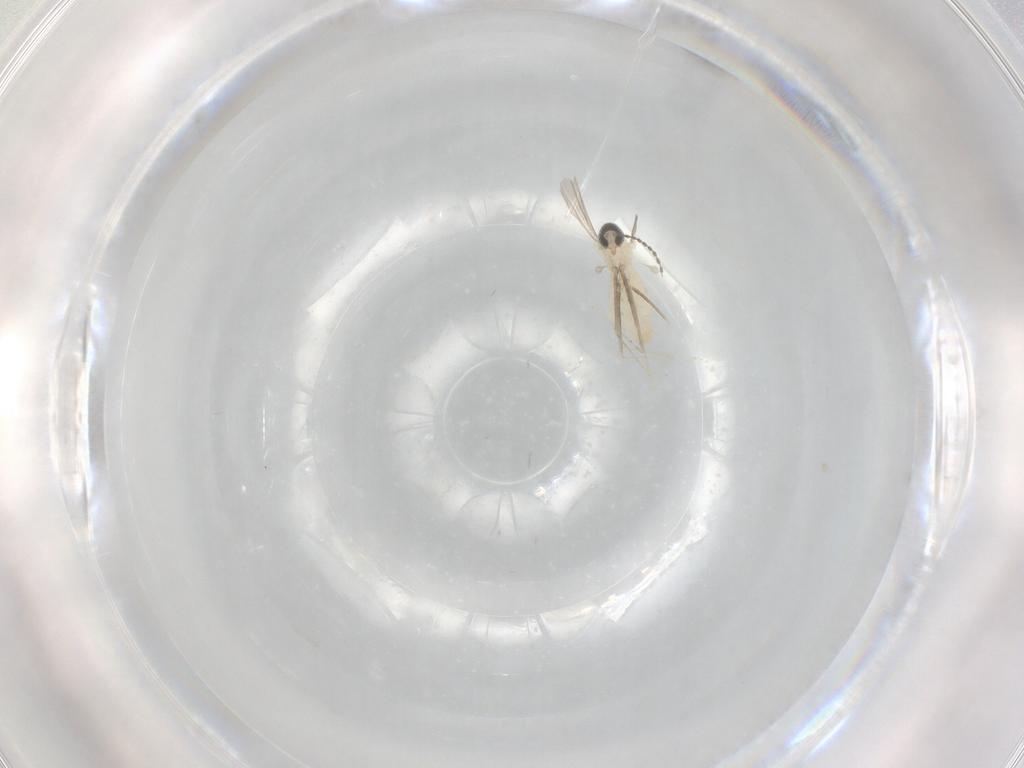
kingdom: Animalia
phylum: Arthropoda
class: Insecta
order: Diptera
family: Cecidomyiidae
